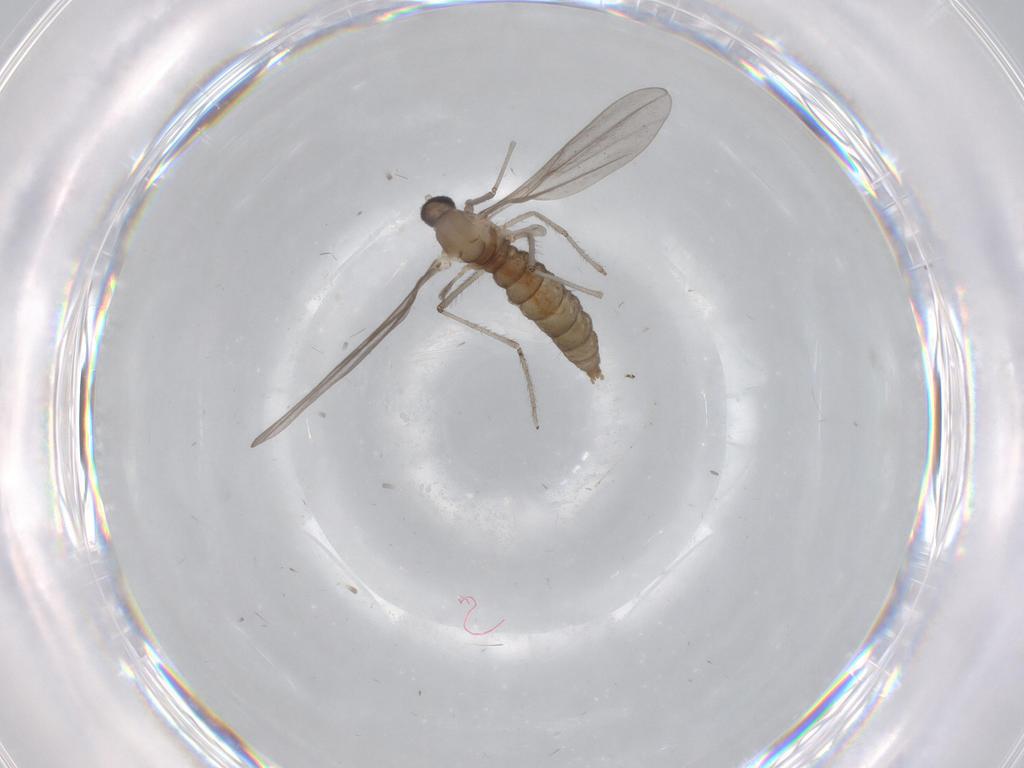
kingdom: Animalia
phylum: Arthropoda
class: Insecta
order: Diptera
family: Cecidomyiidae
